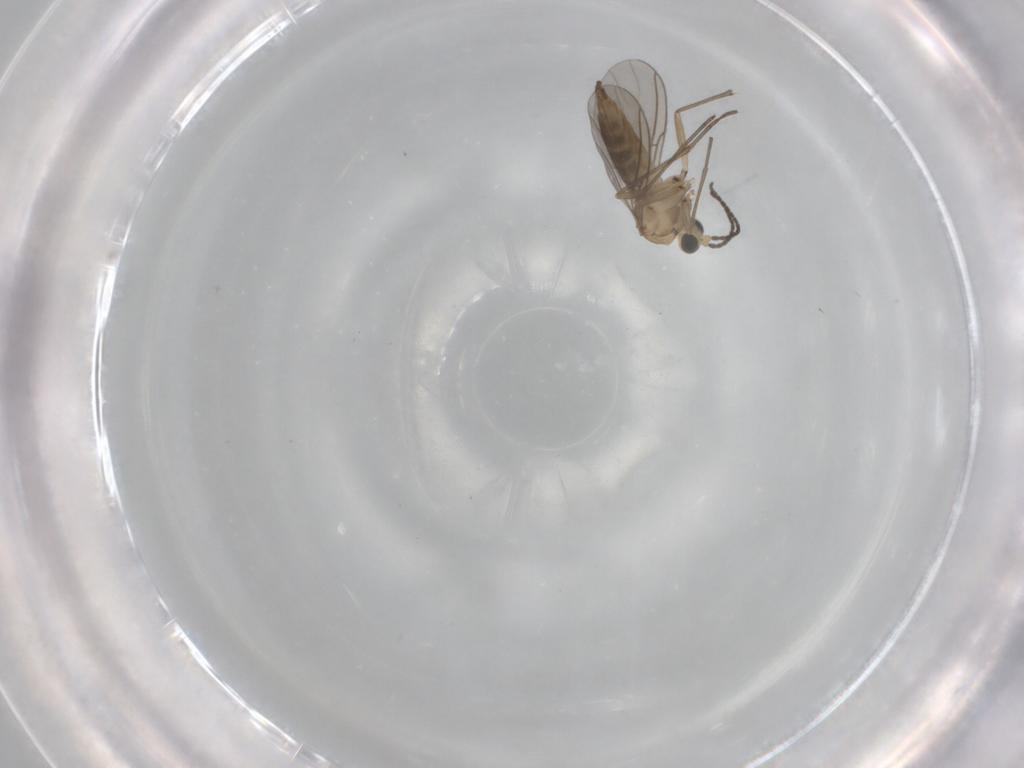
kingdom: Animalia
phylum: Arthropoda
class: Insecta
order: Diptera
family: Sciaridae
